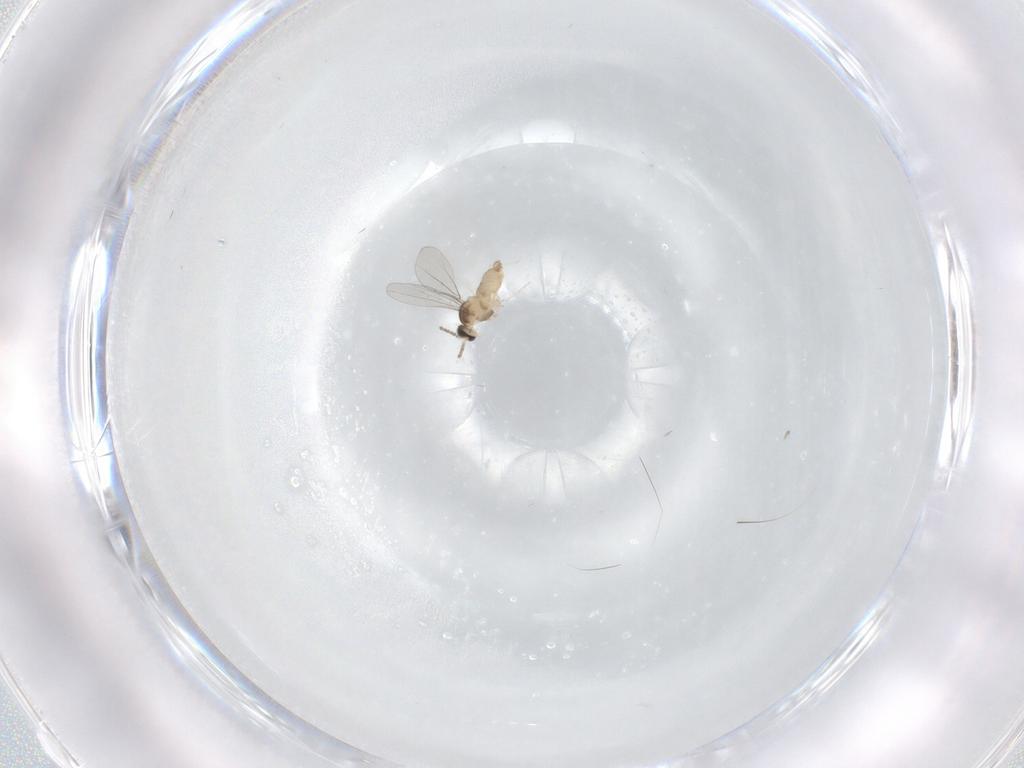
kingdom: Animalia
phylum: Arthropoda
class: Insecta
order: Diptera
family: Cecidomyiidae
